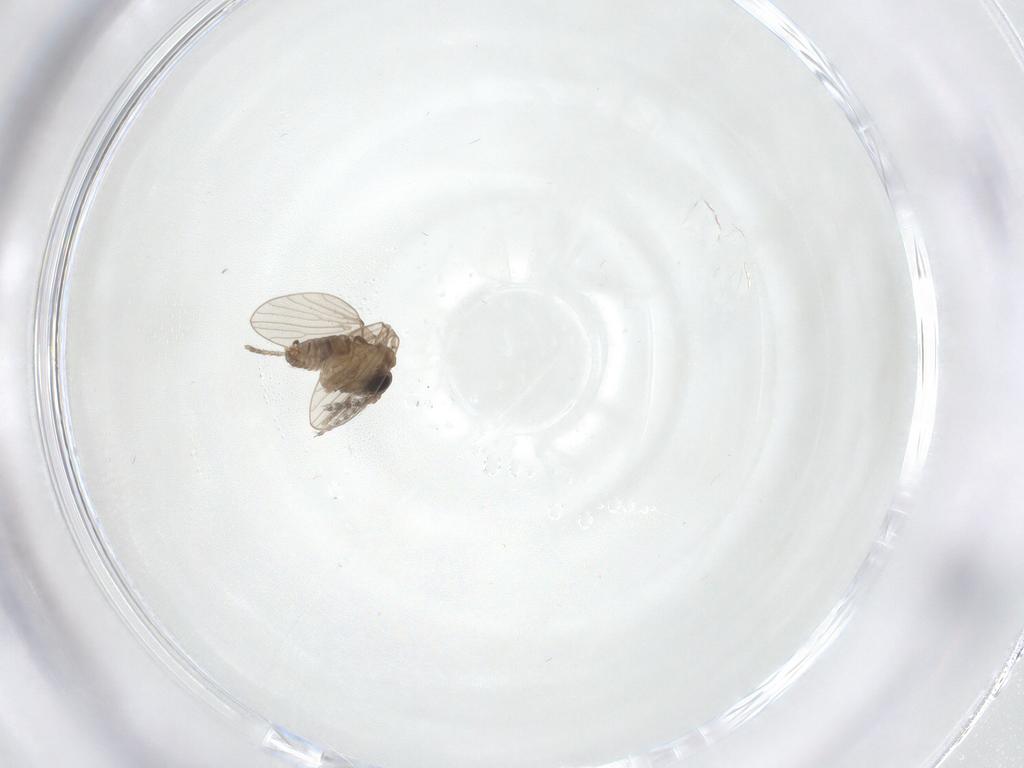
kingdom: Animalia
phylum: Arthropoda
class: Insecta
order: Diptera
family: Psychodidae
